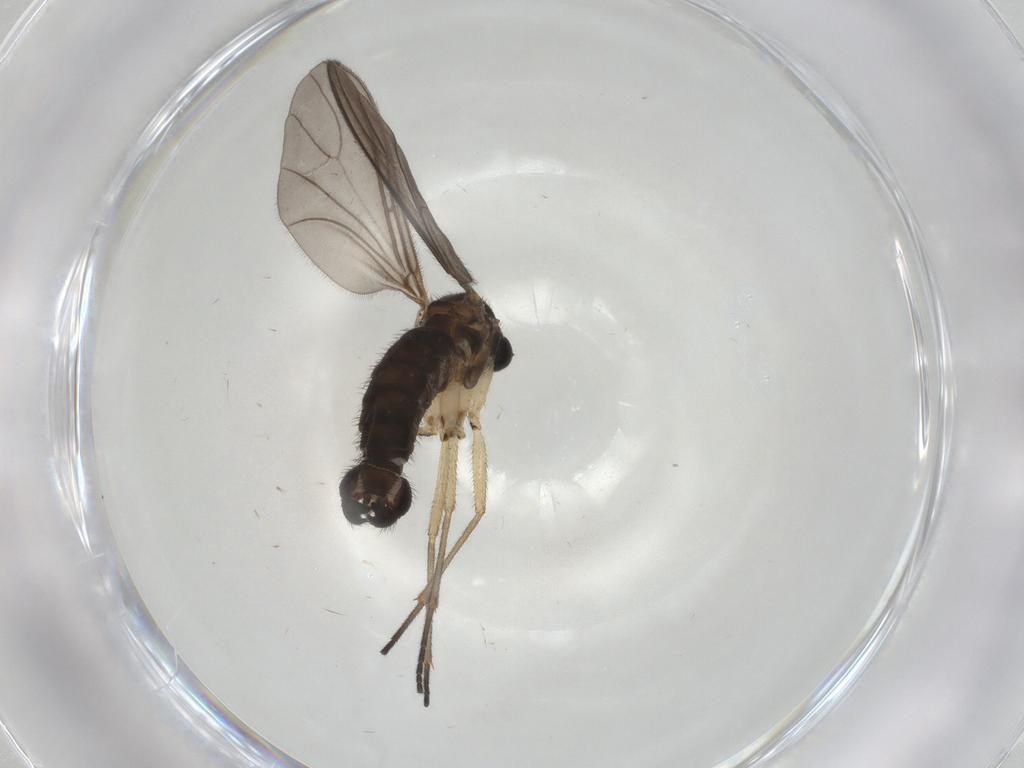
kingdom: Animalia
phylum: Arthropoda
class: Insecta
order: Diptera
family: Sciaridae
